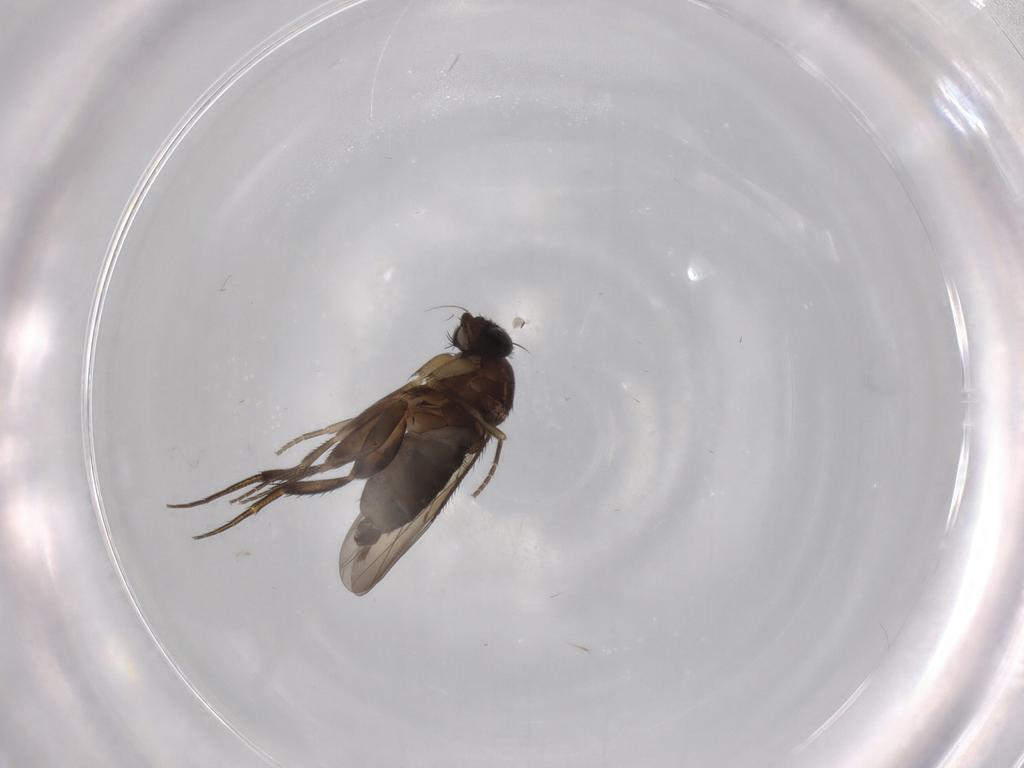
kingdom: Animalia
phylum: Arthropoda
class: Insecta
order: Diptera
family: Phoridae
